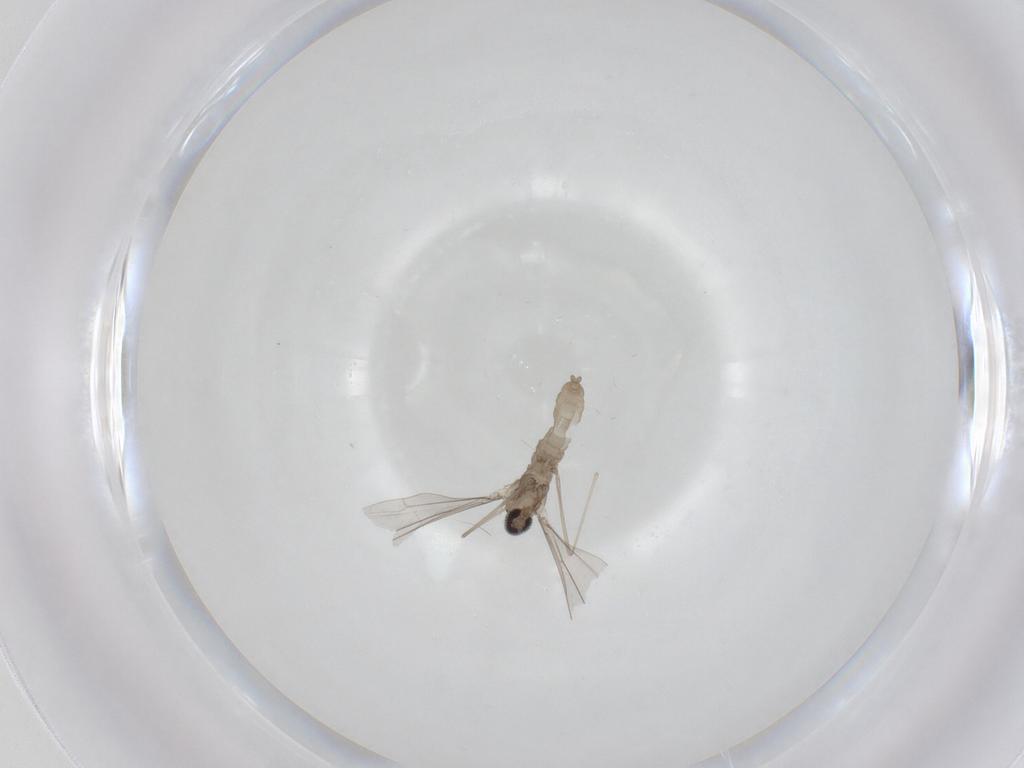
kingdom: Animalia
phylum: Arthropoda
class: Insecta
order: Diptera
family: Cecidomyiidae
